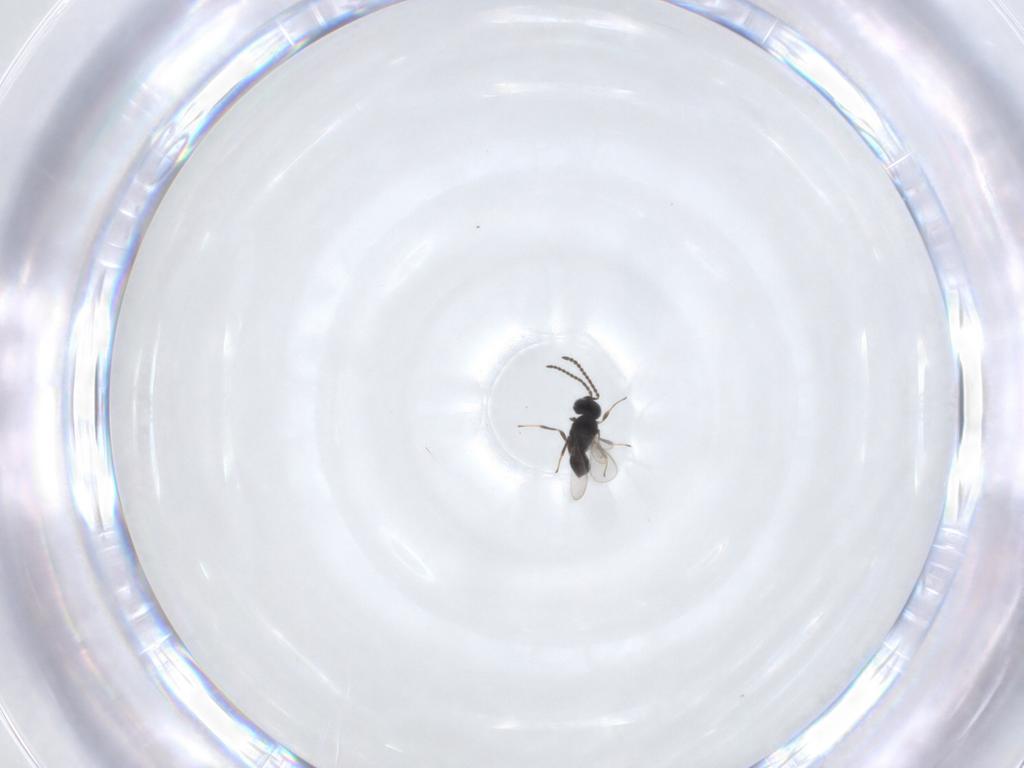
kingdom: Animalia
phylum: Arthropoda
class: Insecta
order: Hymenoptera
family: Scelionidae
